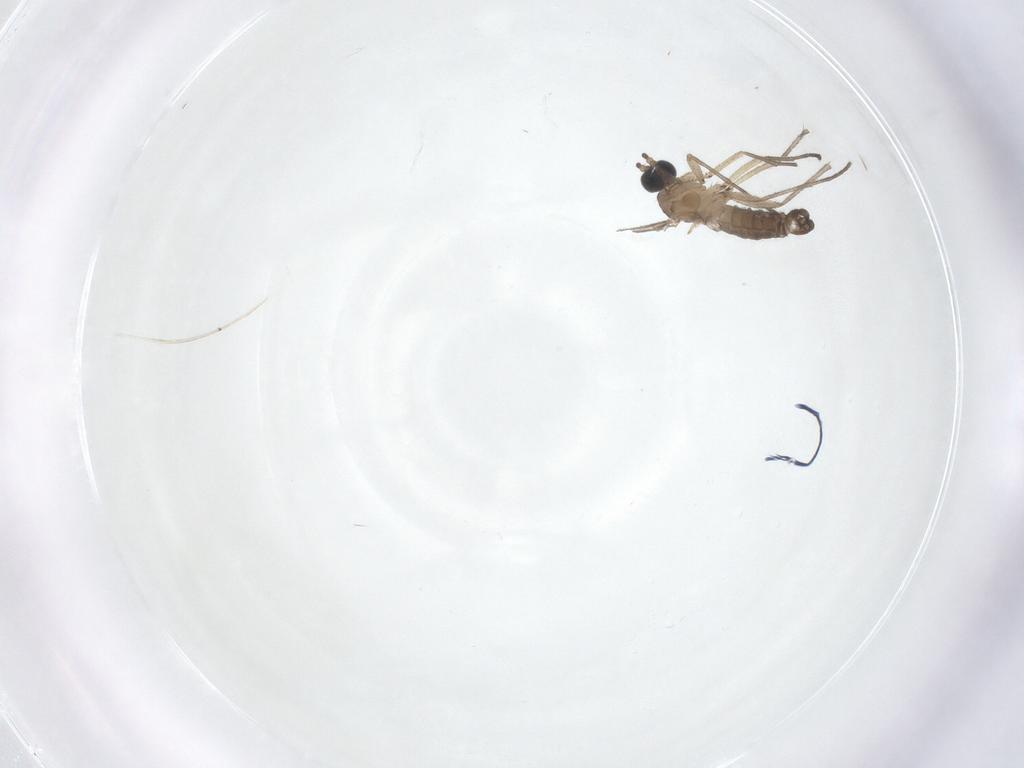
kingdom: Animalia
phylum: Arthropoda
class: Insecta
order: Diptera
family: Sciaridae
